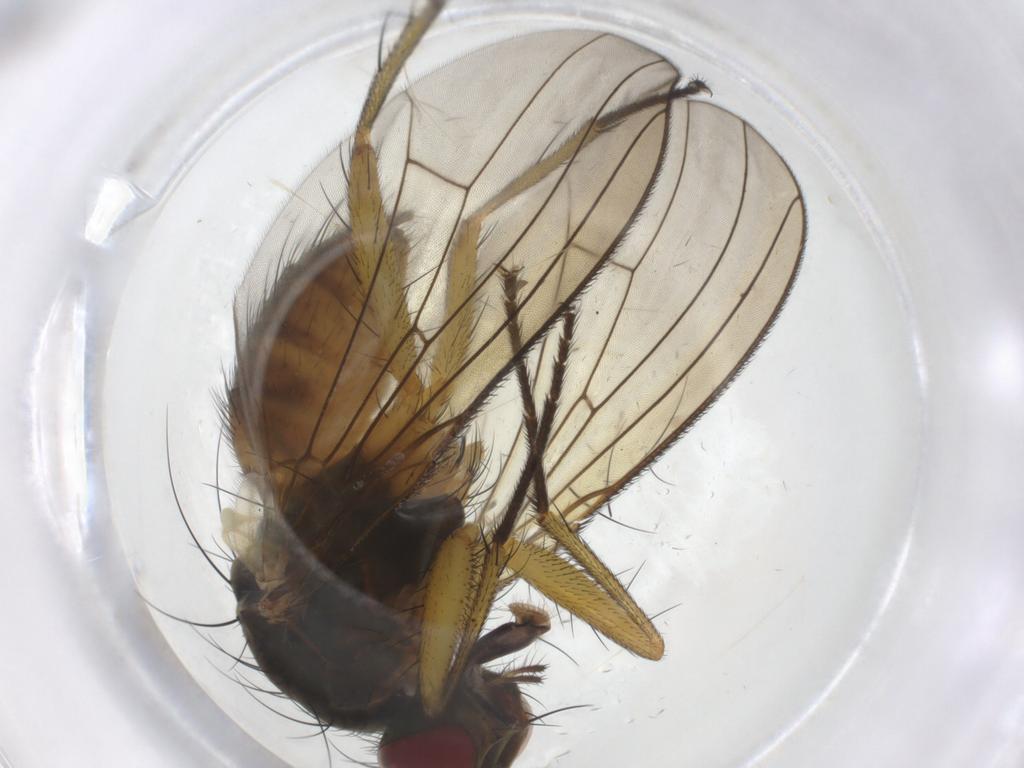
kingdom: Animalia
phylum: Arthropoda
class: Insecta
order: Diptera
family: Muscidae
